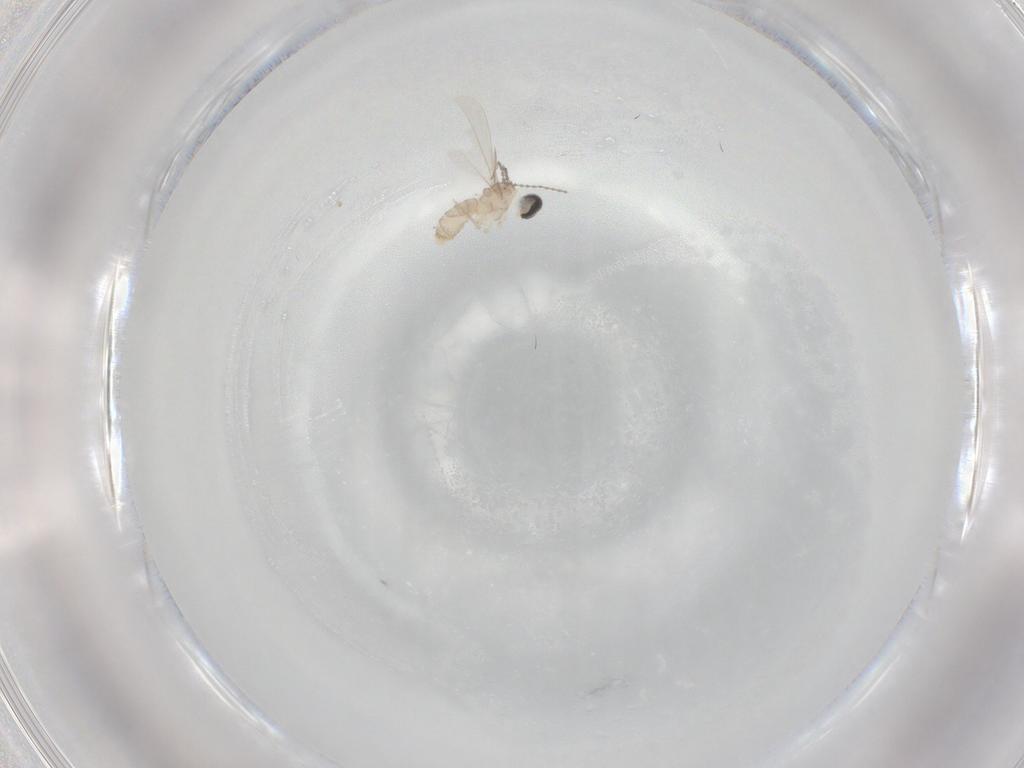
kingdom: Animalia
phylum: Arthropoda
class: Insecta
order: Diptera
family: Cecidomyiidae
